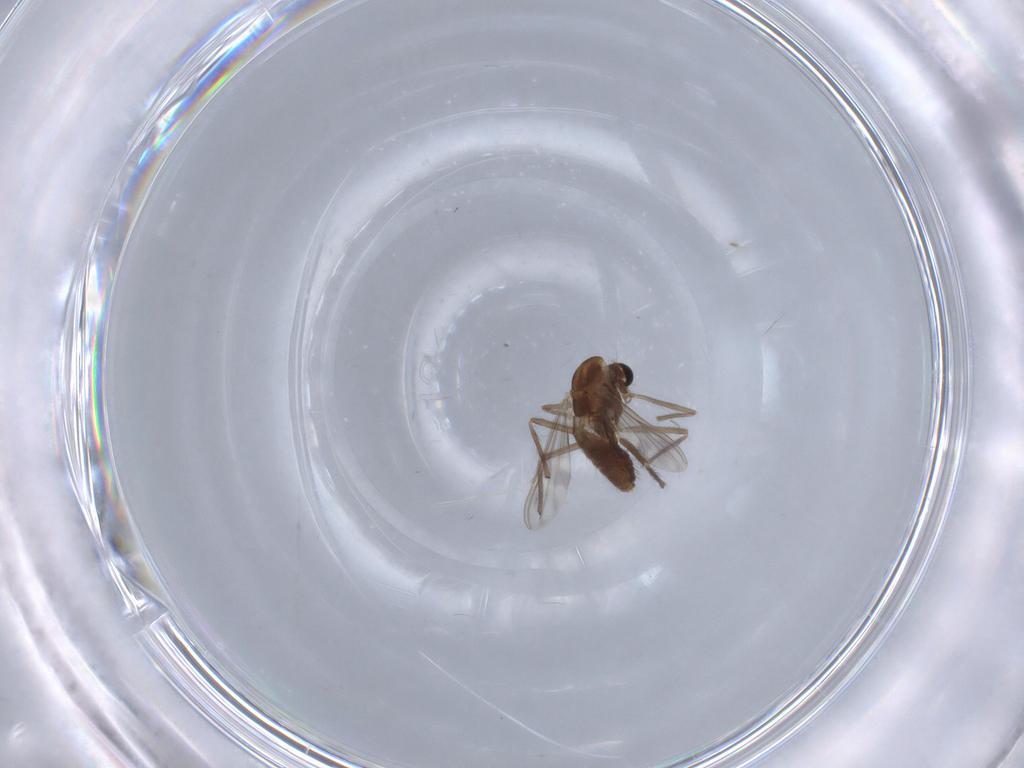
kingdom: Animalia
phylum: Arthropoda
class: Insecta
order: Diptera
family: Chironomidae
